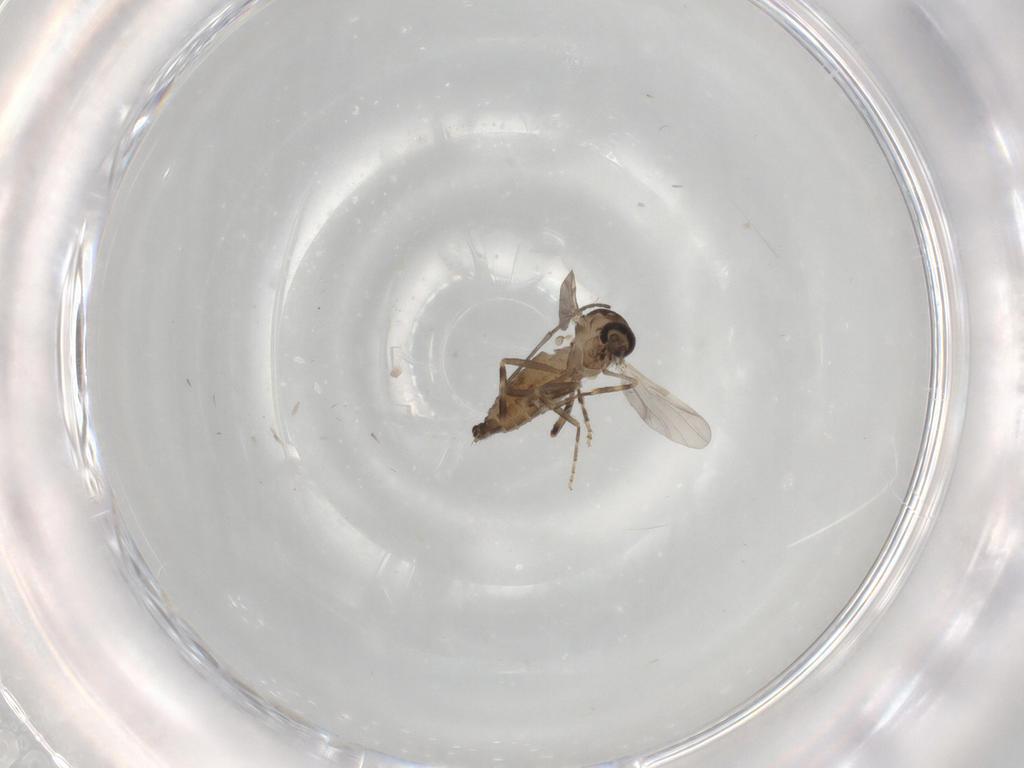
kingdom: Animalia
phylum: Arthropoda
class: Insecta
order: Diptera
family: Ceratopogonidae
